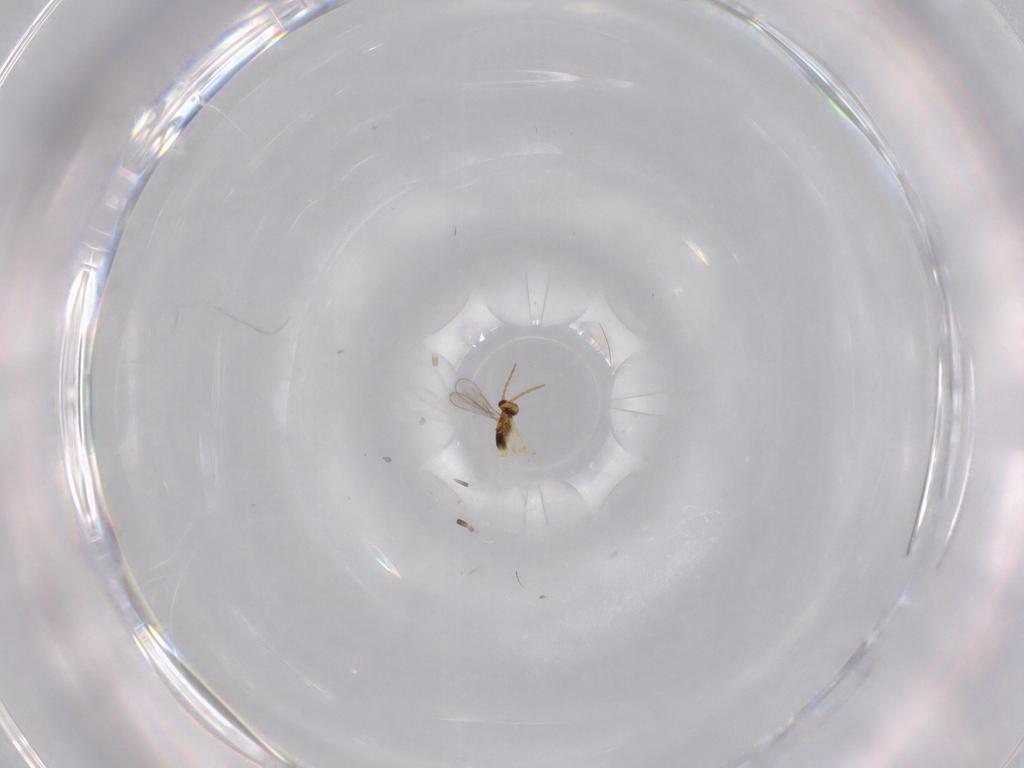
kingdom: Animalia
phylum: Arthropoda
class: Insecta
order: Hymenoptera
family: Aphelinidae
